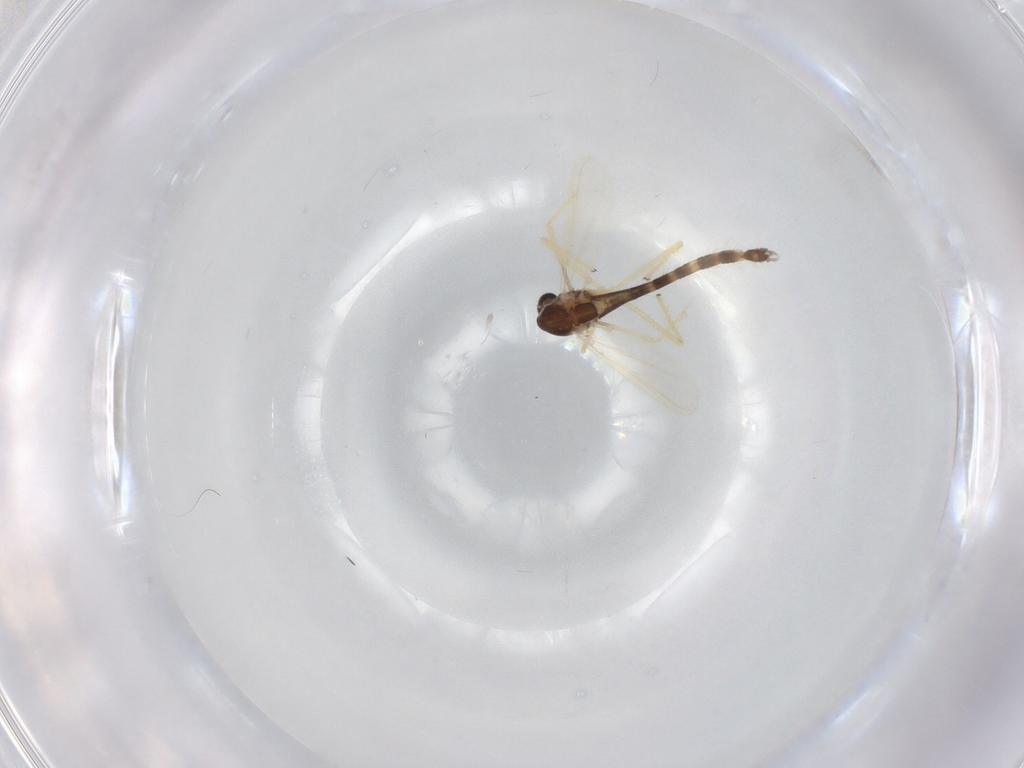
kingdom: Animalia
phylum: Arthropoda
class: Insecta
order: Diptera
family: Chironomidae
